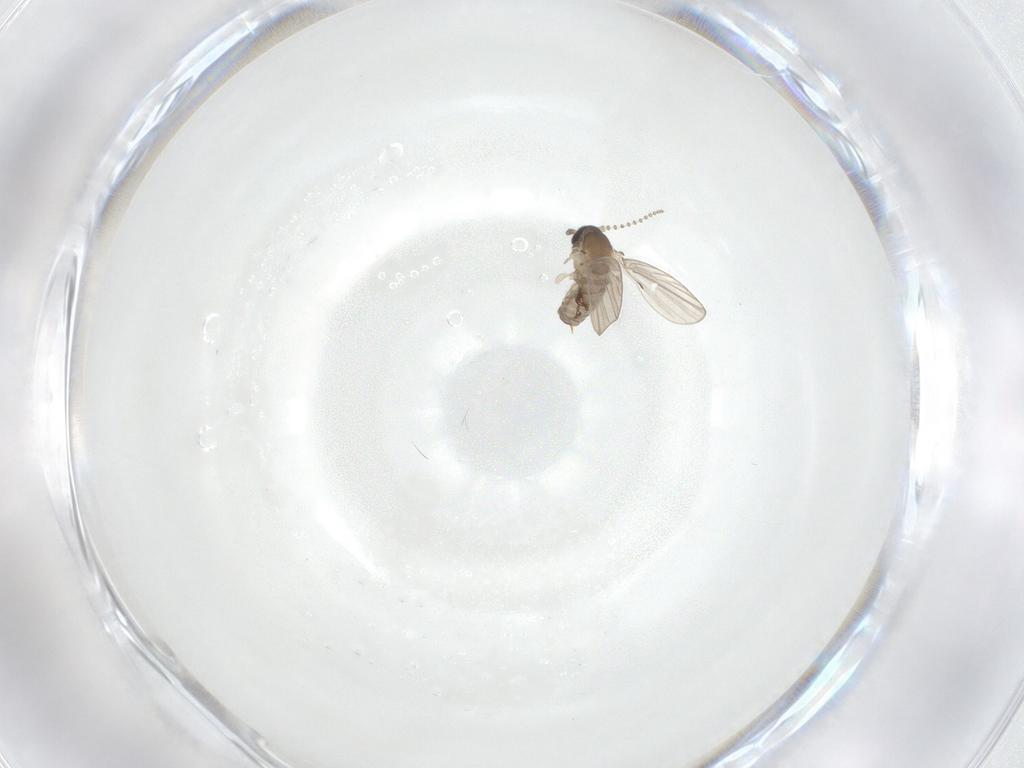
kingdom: Animalia
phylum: Arthropoda
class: Insecta
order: Diptera
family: Psychodidae
